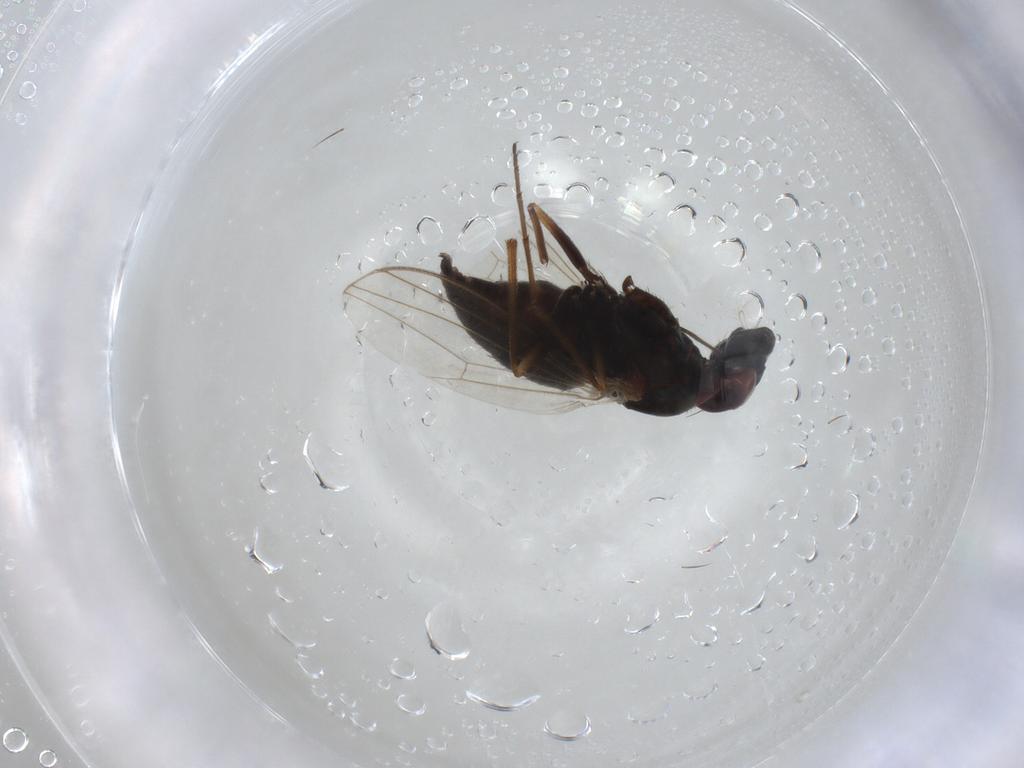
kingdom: Animalia
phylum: Arthropoda
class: Insecta
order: Diptera
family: Dolichopodidae
